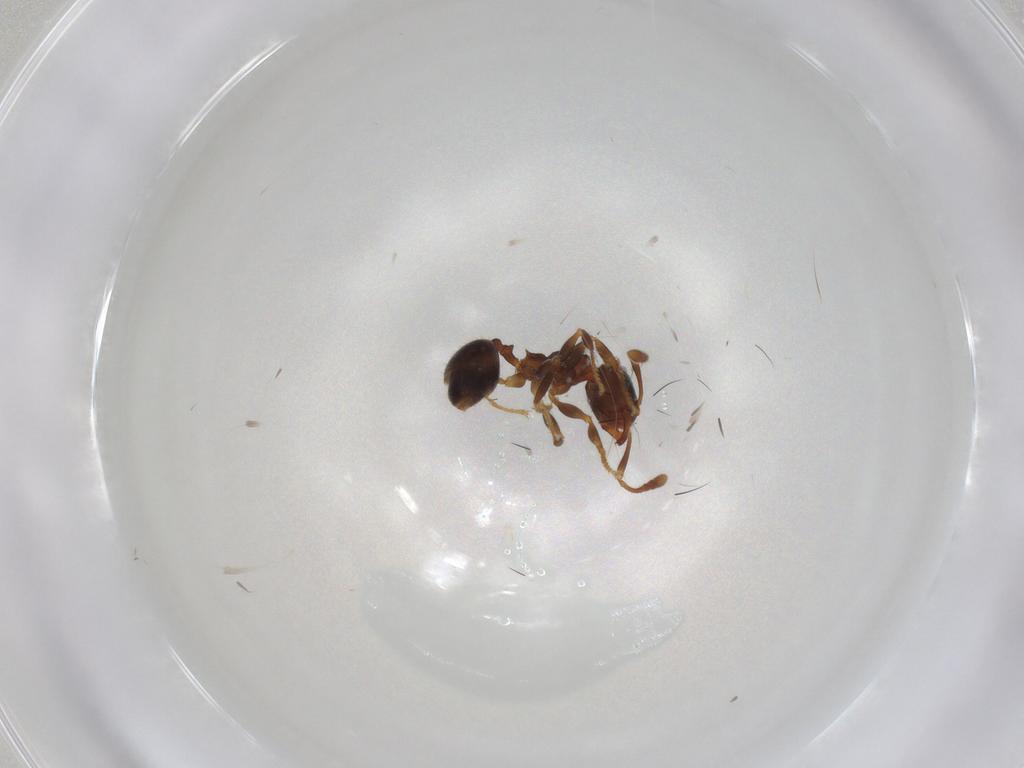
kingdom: Animalia
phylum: Arthropoda
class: Insecta
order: Hymenoptera
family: Formicidae
